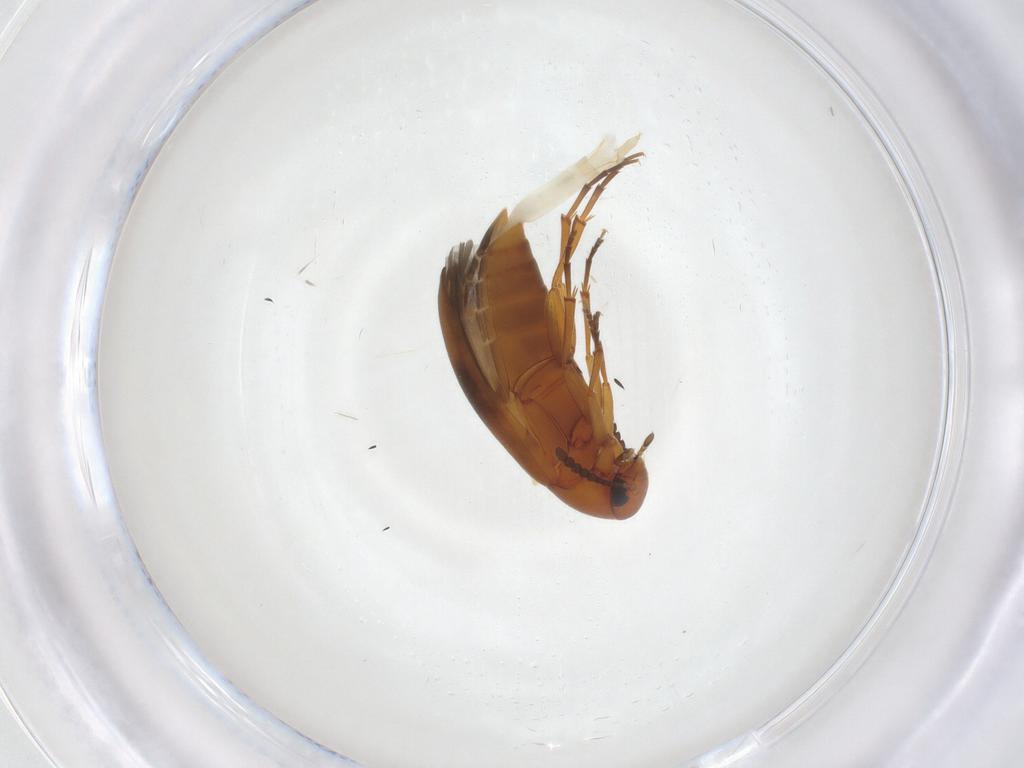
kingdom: Animalia
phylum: Arthropoda
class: Insecta
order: Coleoptera
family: Scraptiidae
